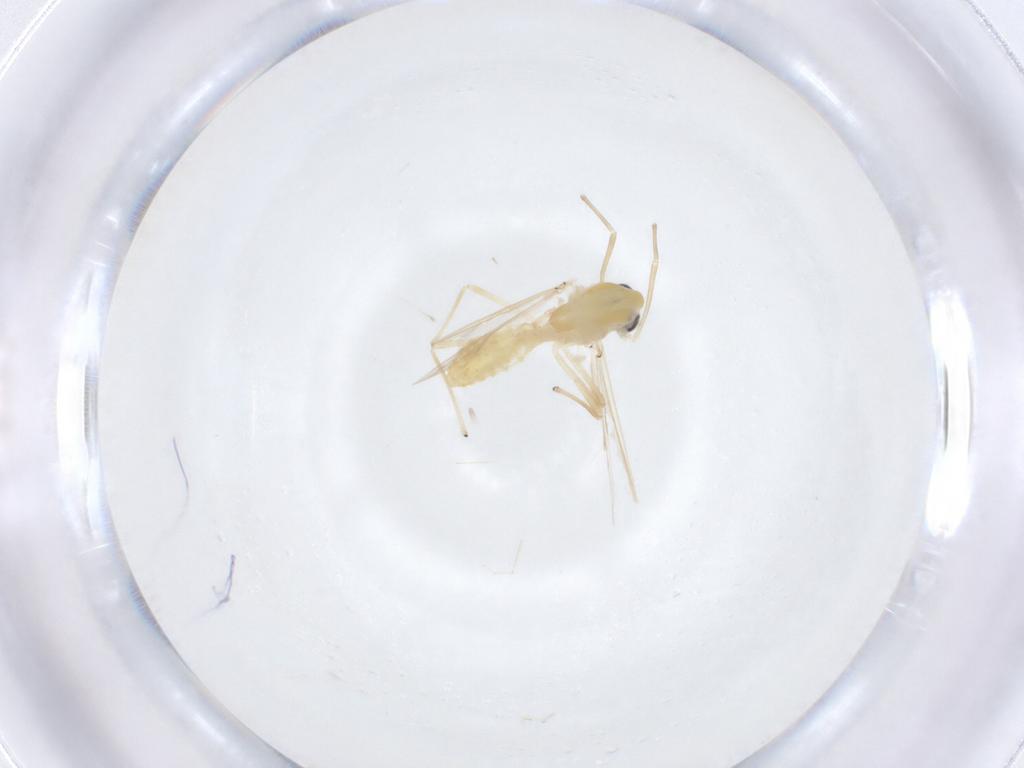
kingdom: Animalia
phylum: Arthropoda
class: Insecta
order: Diptera
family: Chironomidae
